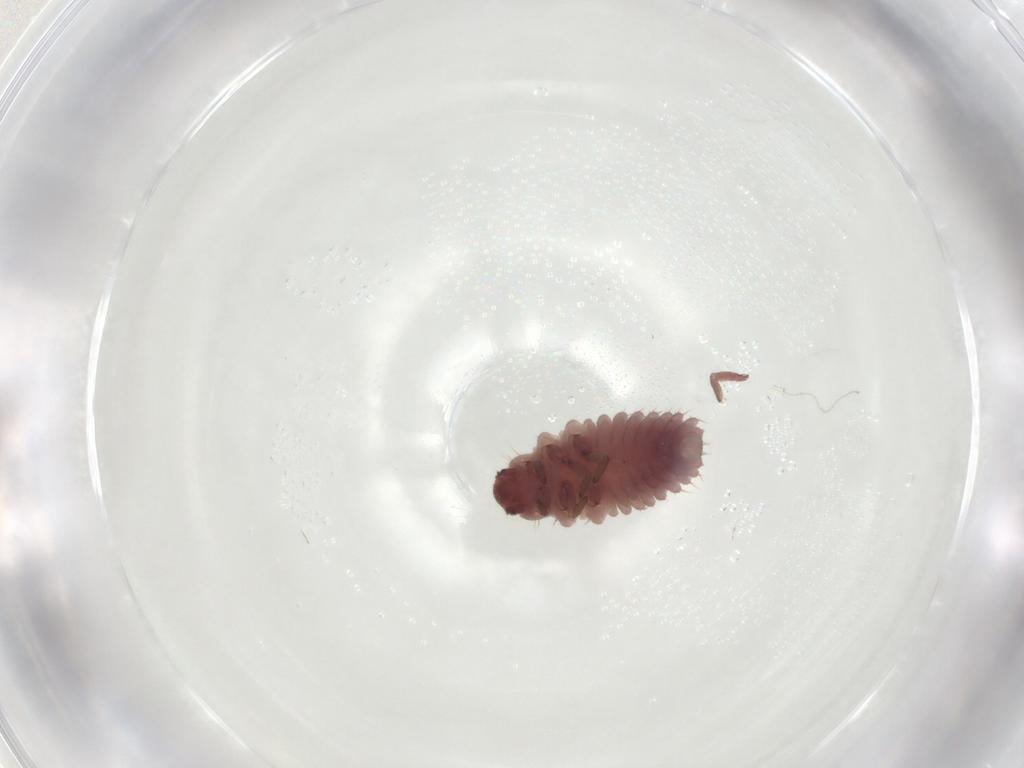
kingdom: Animalia
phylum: Arthropoda
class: Insecta
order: Coleoptera
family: Coccinellidae
